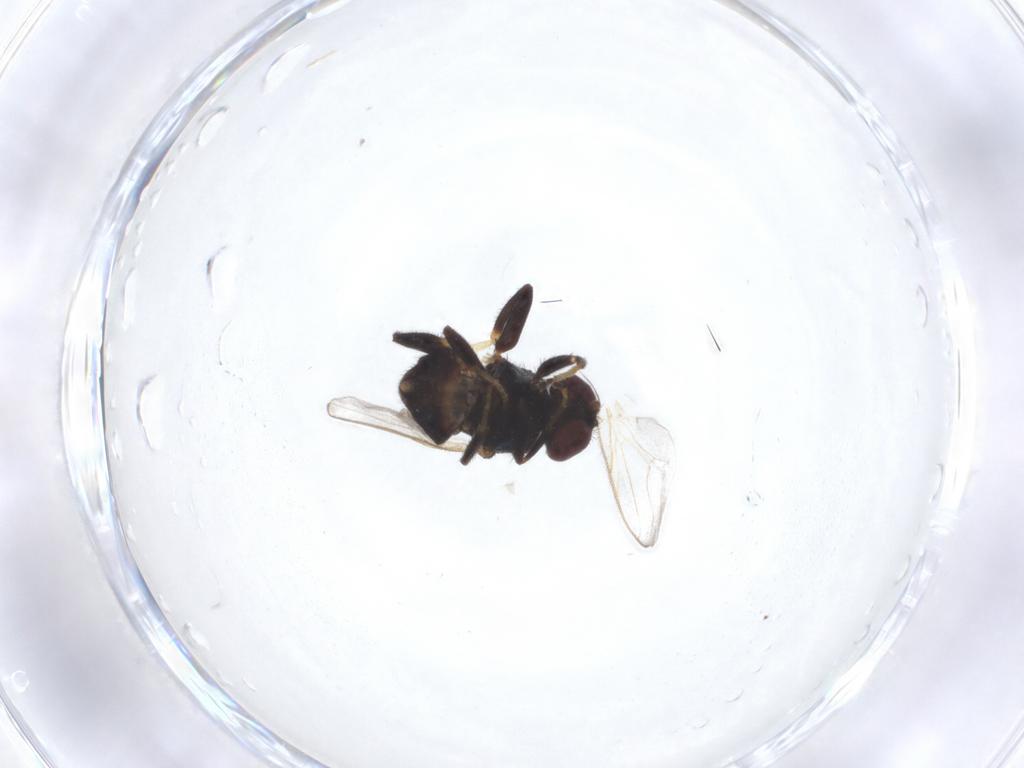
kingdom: Animalia
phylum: Arthropoda
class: Insecta
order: Diptera
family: Chloropidae
